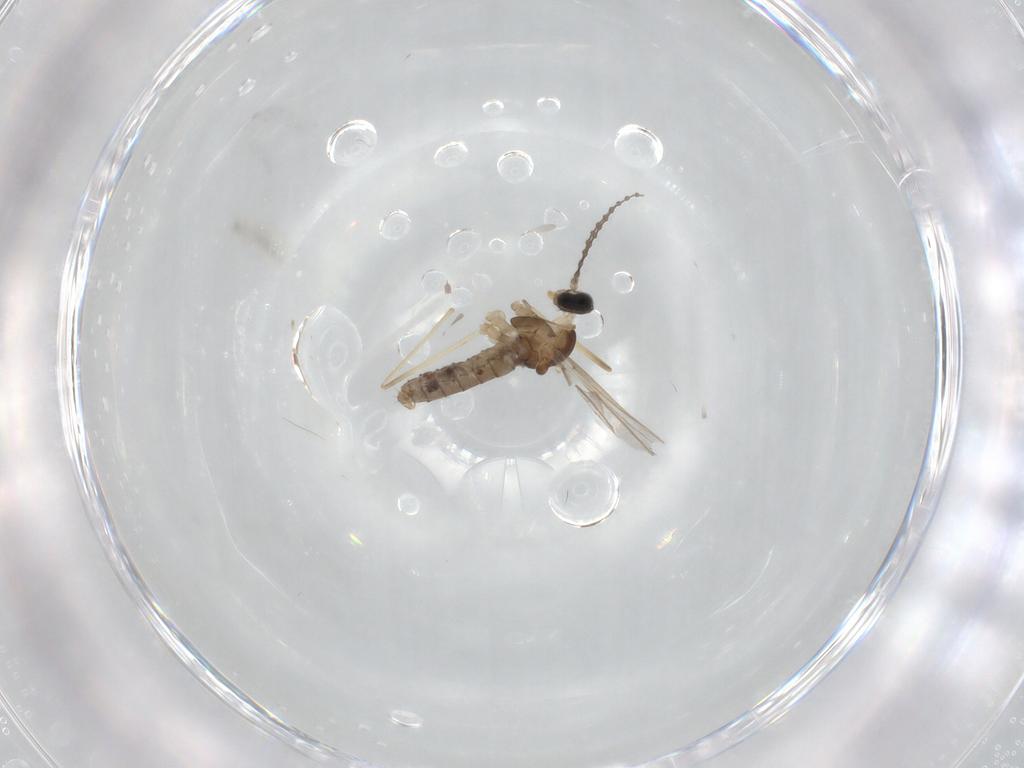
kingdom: Animalia
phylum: Arthropoda
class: Insecta
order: Diptera
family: Cecidomyiidae
